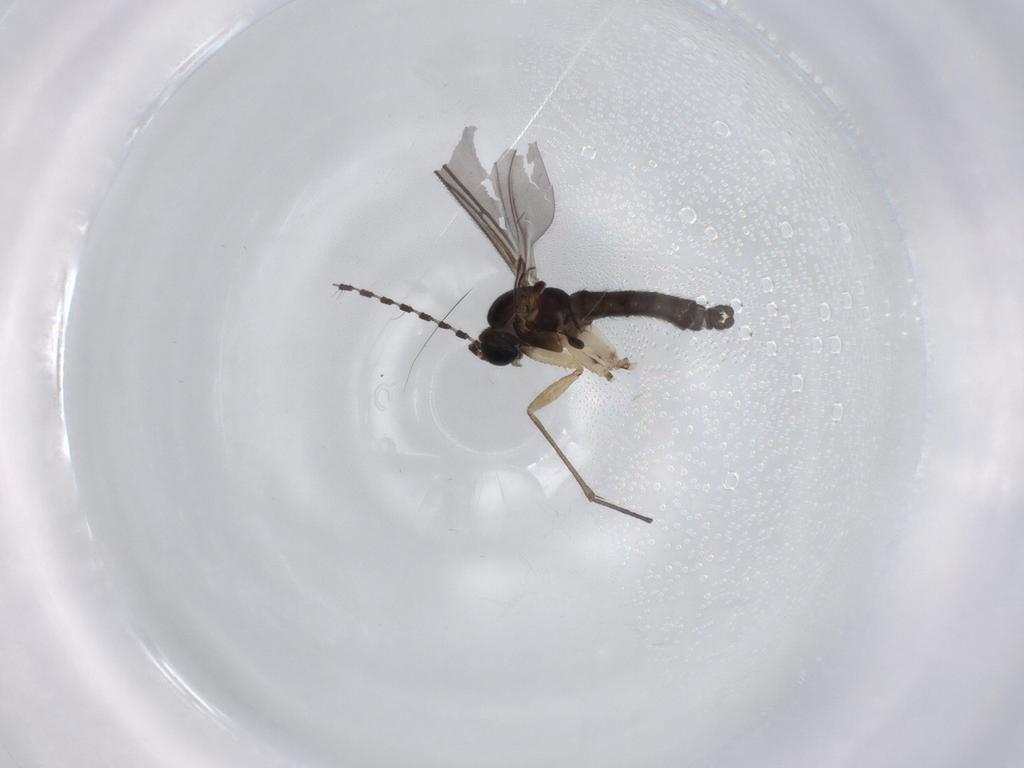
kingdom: Animalia
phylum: Arthropoda
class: Insecta
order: Diptera
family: Sciaridae
